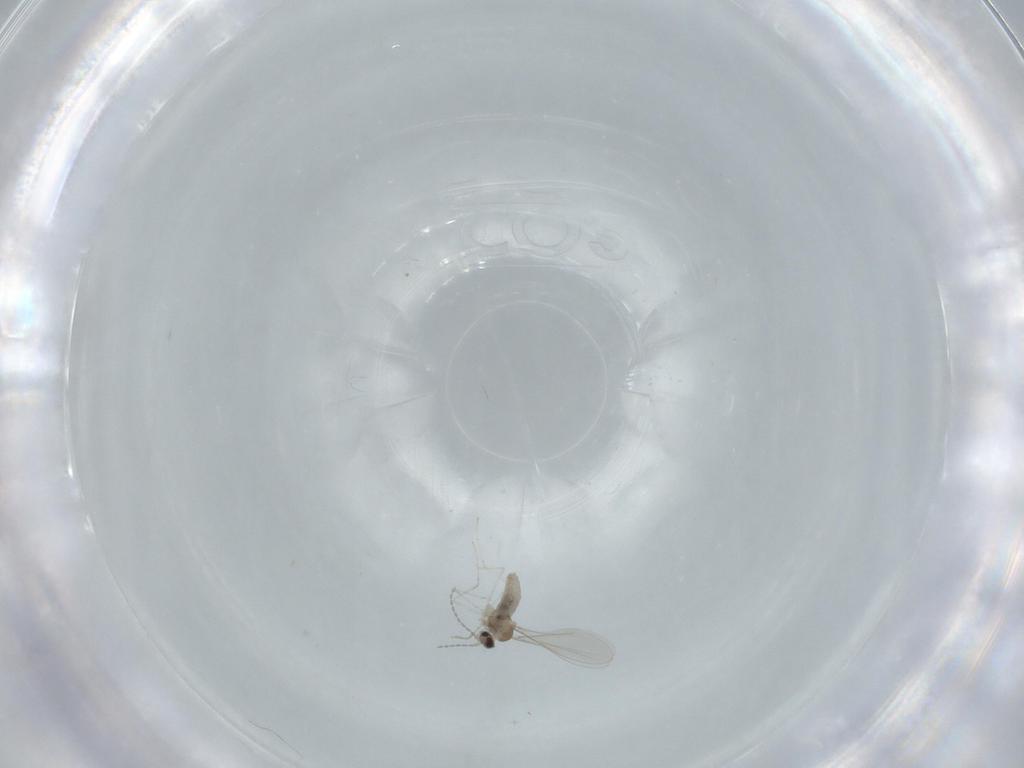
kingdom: Animalia
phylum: Arthropoda
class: Insecta
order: Diptera
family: Cecidomyiidae
